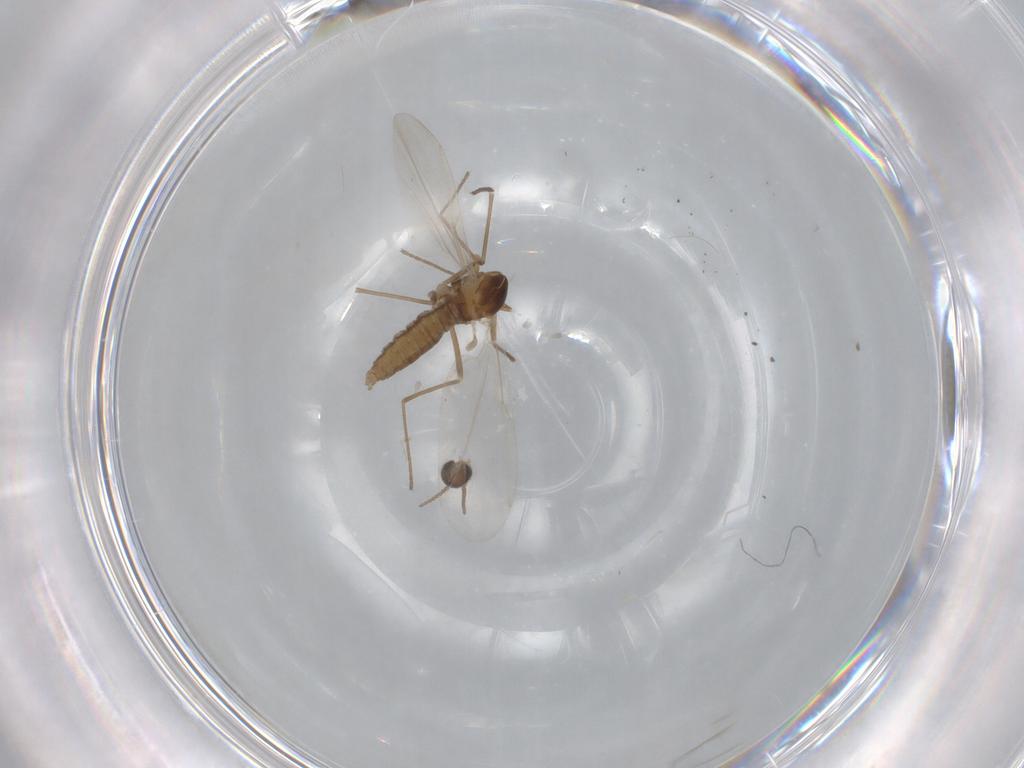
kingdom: Animalia
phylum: Arthropoda
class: Insecta
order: Diptera
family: Cecidomyiidae
